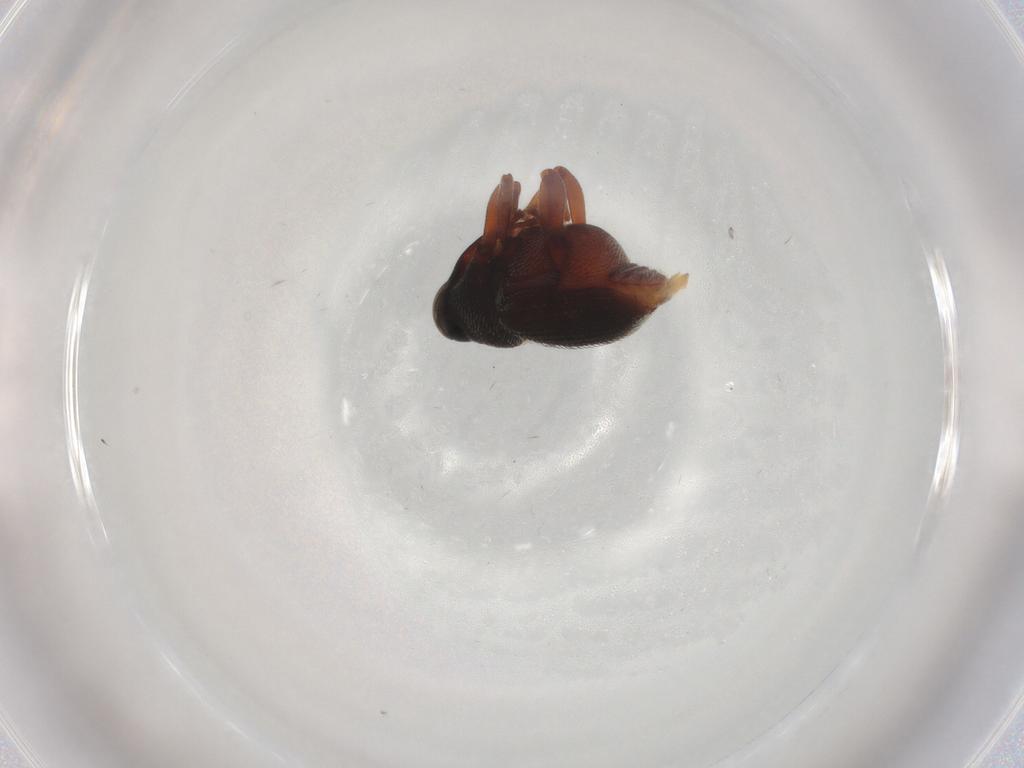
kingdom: Animalia
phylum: Arthropoda
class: Insecta
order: Coleoptera
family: Curculionidae
